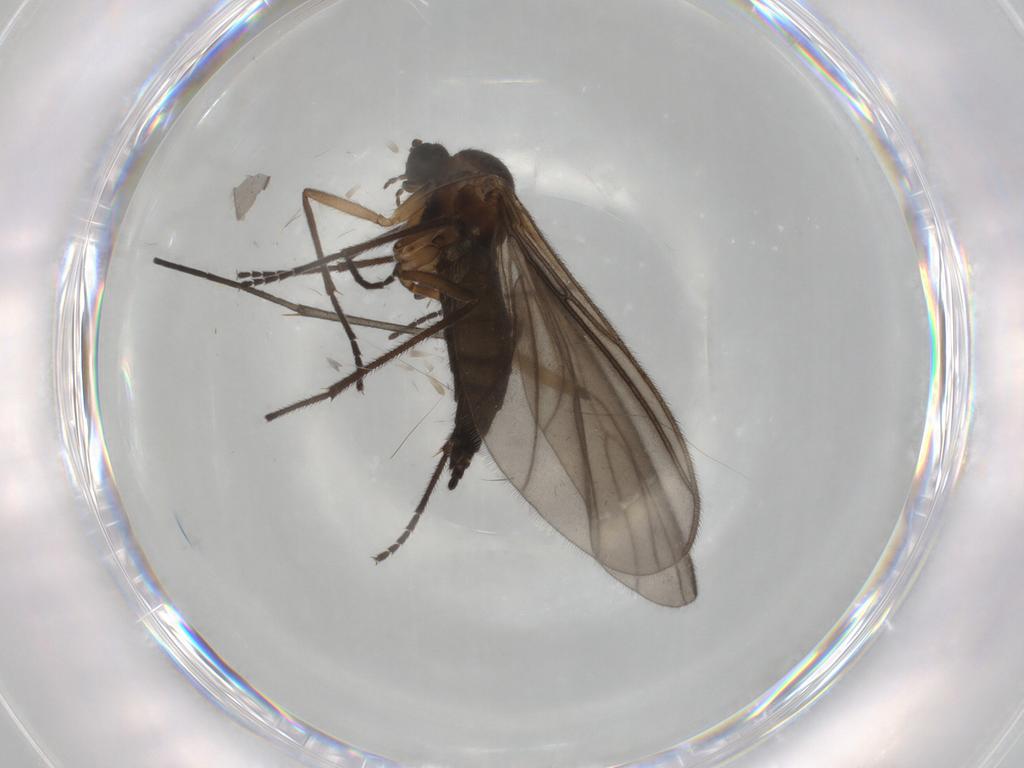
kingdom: Animalia
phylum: Arthropoda
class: Insecta
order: Diptera
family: Sciaridae
